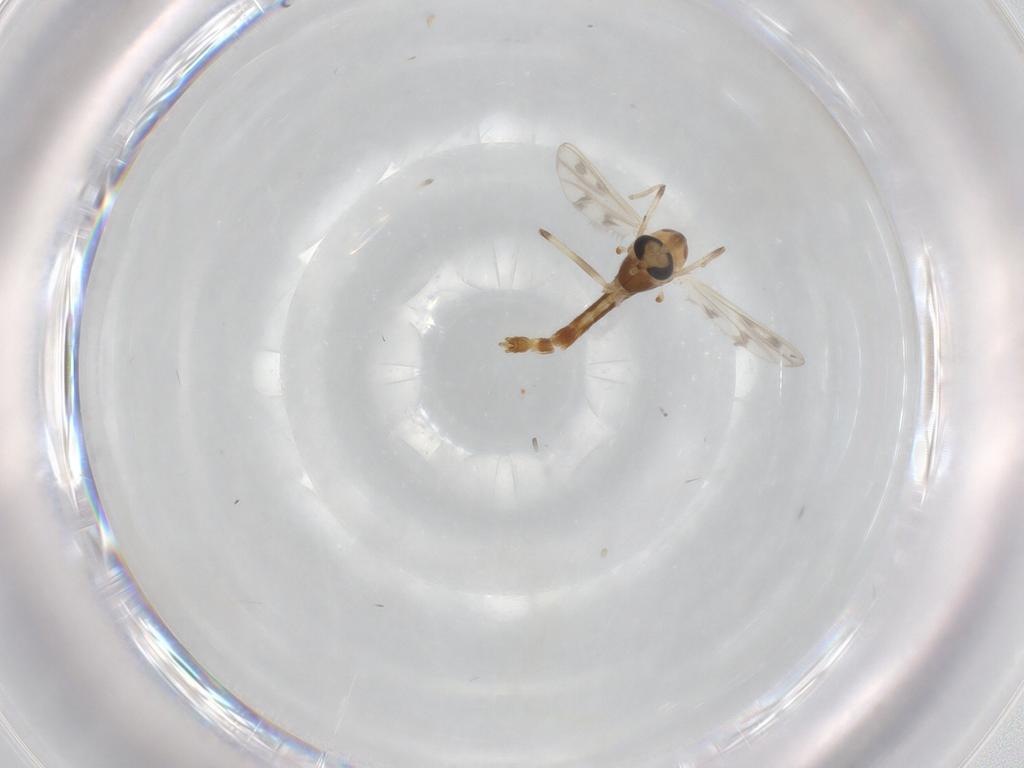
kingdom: Animalia
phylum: Arthropoda
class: Insecta
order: Diptera
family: Chironomidae
